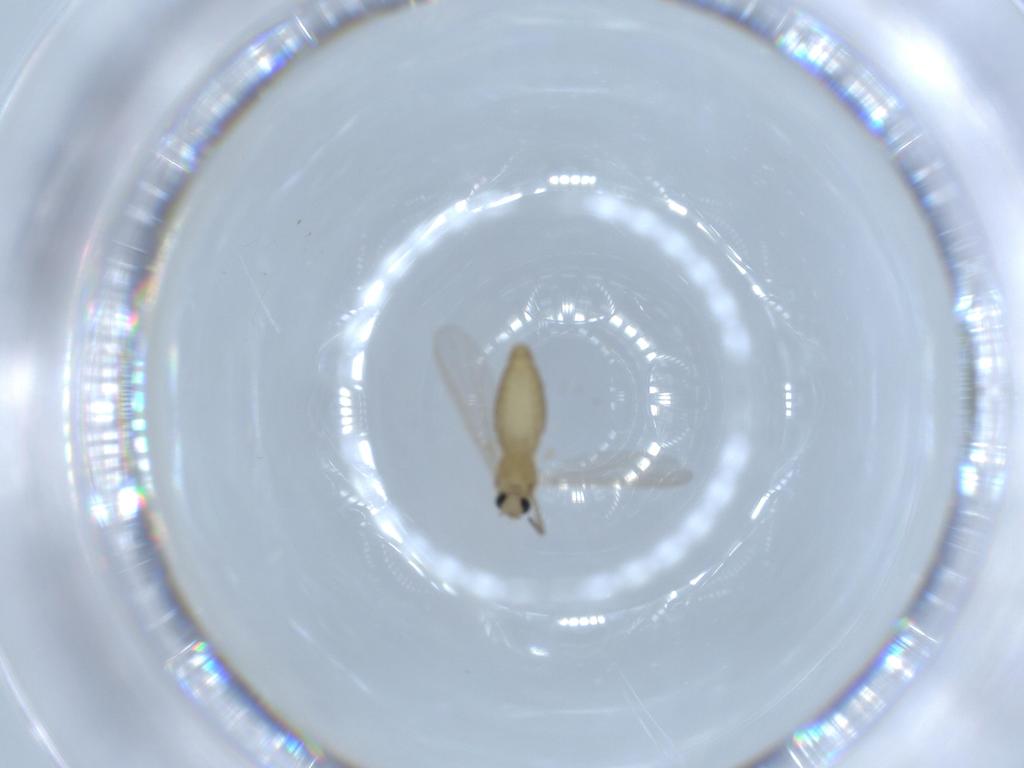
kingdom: Animalia
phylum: Arthropoda
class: Insecta
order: Diptera
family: Chironomidae
